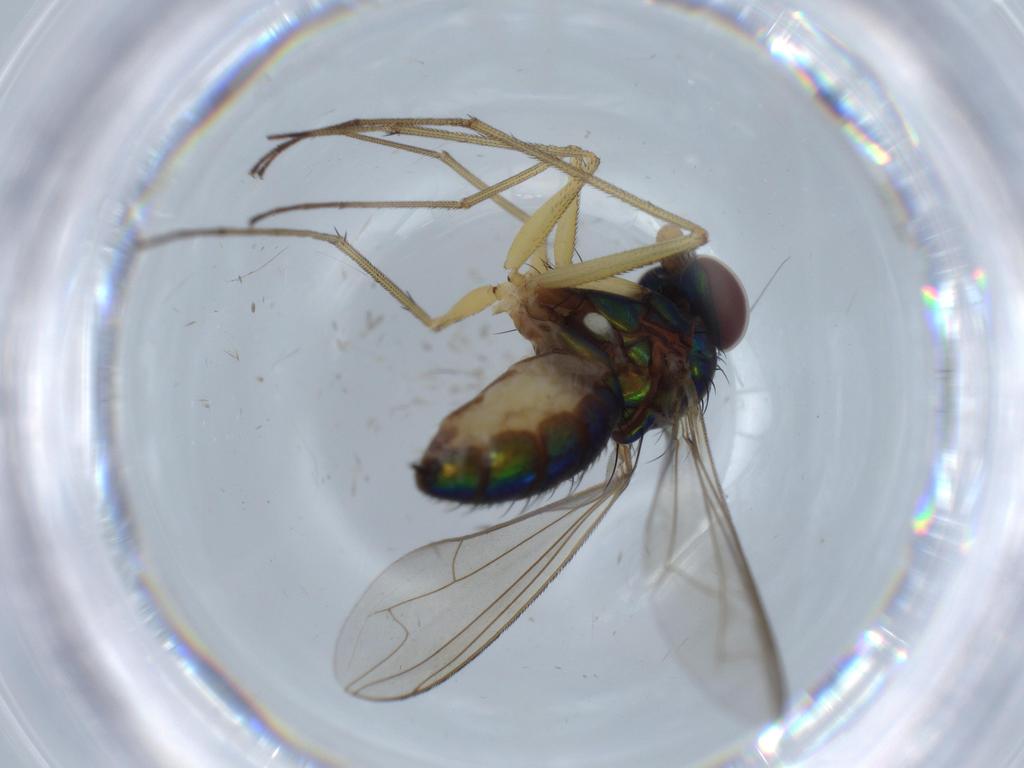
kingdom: Animalia
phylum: Arthropoda
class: Insecta
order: Diptera
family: Dolichopodidae
